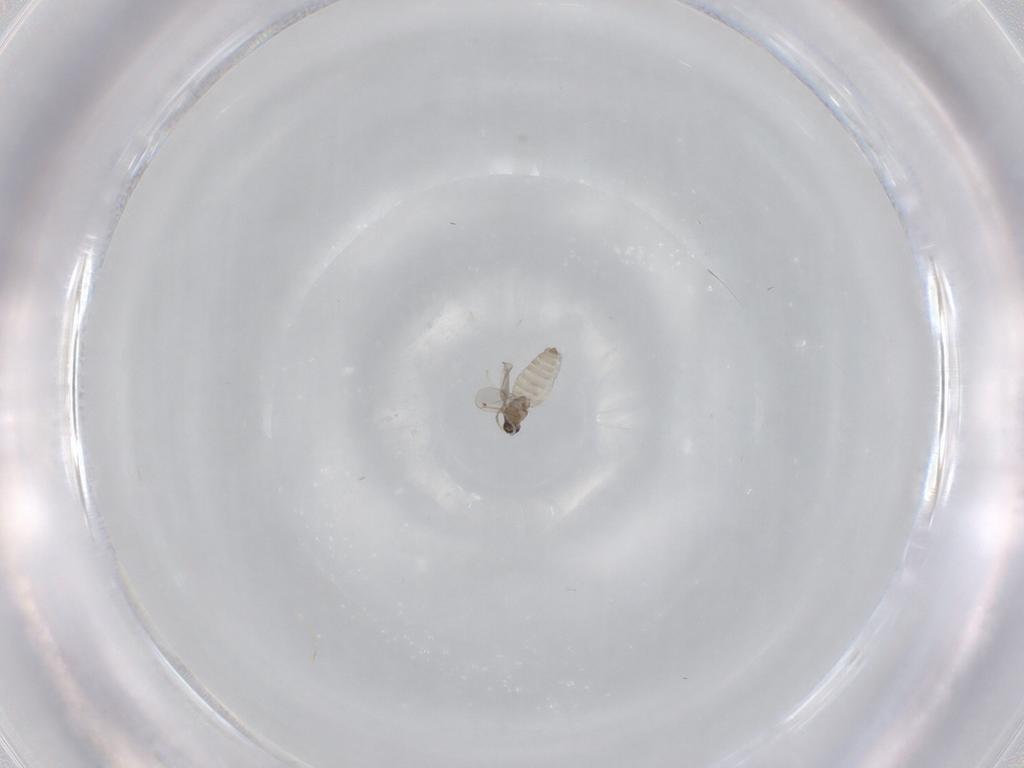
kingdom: Animalia
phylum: Arthropoda
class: Insecta
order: Diptera
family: Cecidomyiidae
